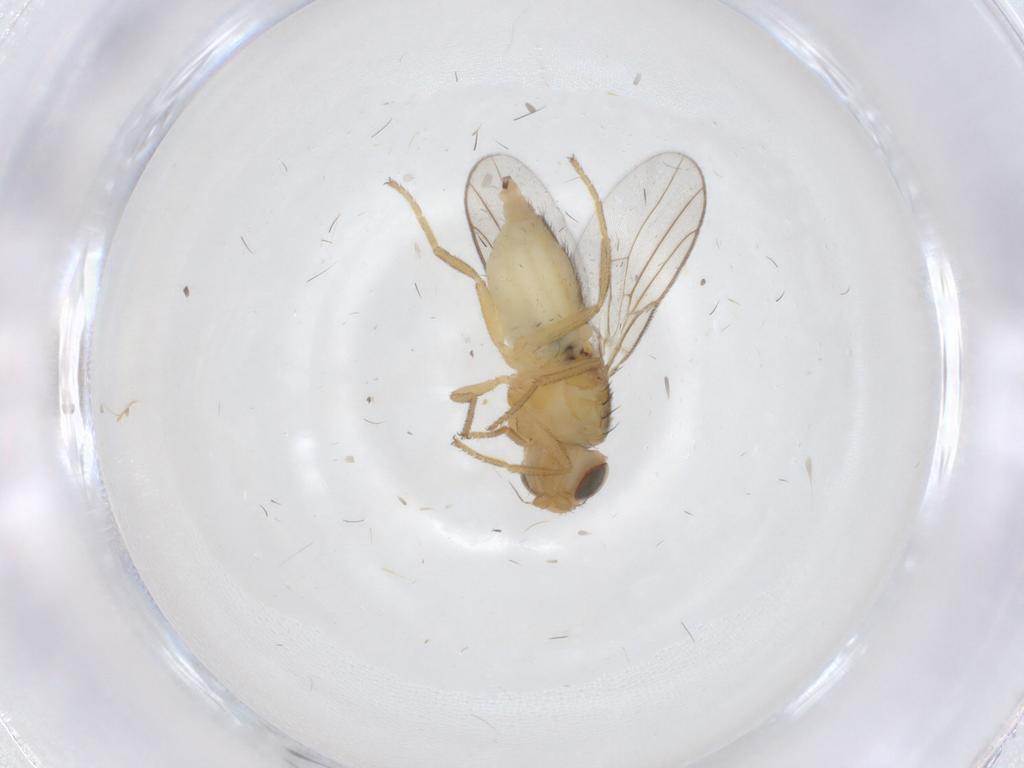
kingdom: Animalia
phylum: Arthropoda
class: Insecta
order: Diptera
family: Chloropidae
